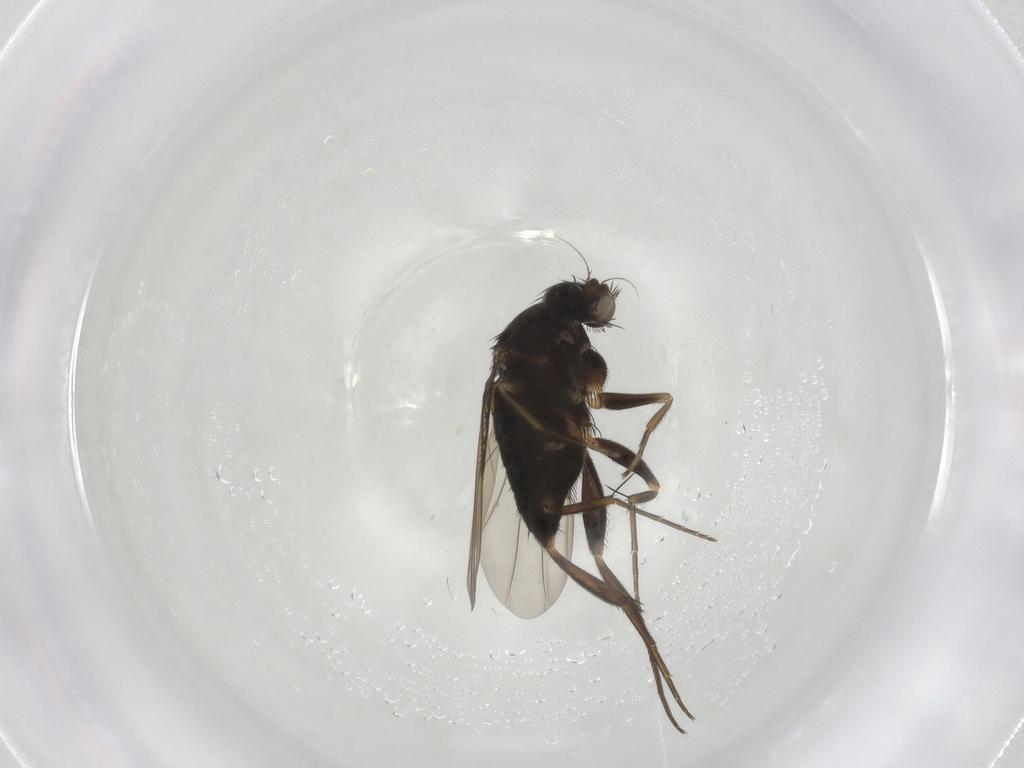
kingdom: Animalia
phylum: Arthropoda
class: Insecta
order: Diptera
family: Phoridae
